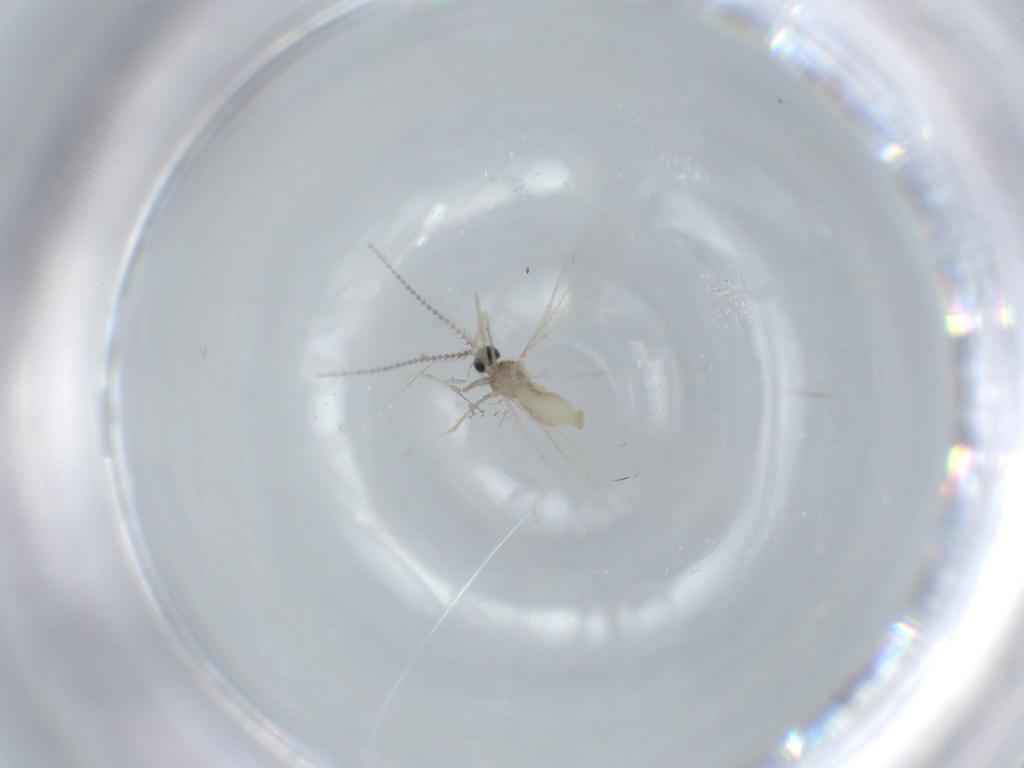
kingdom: Animalia
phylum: Arthropoda
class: Insecta
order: Diptera
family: Cecidomyiidae
